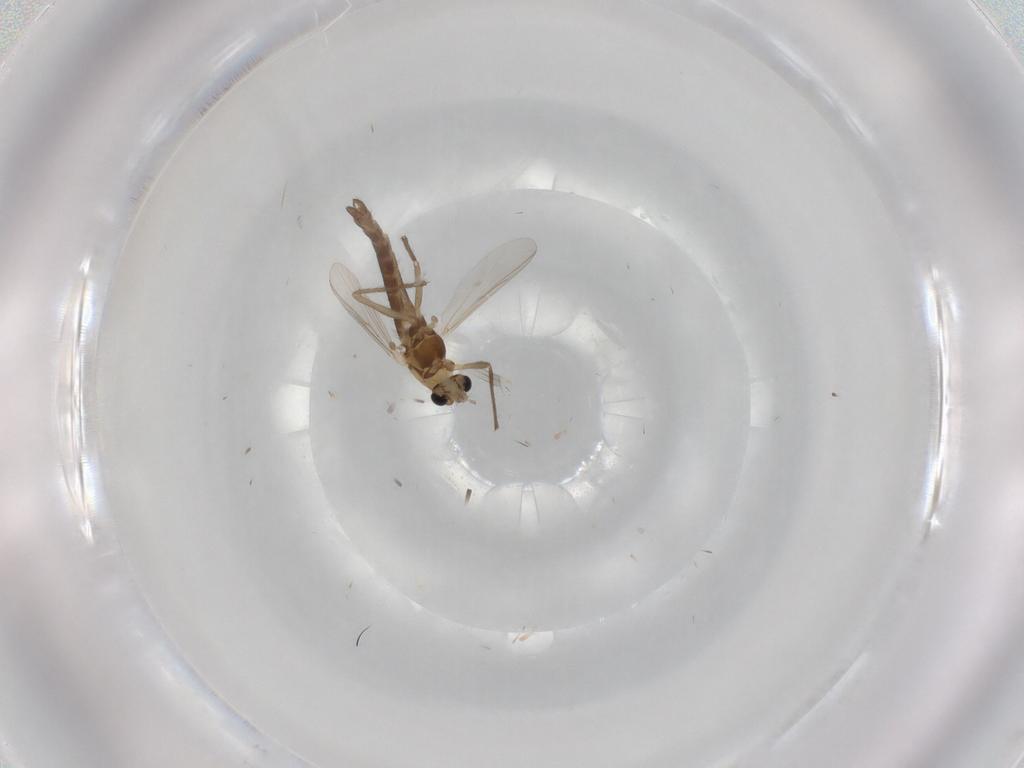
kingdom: Animalia
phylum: Arthropoda
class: Insecta
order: Diptera
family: Chironomidae
